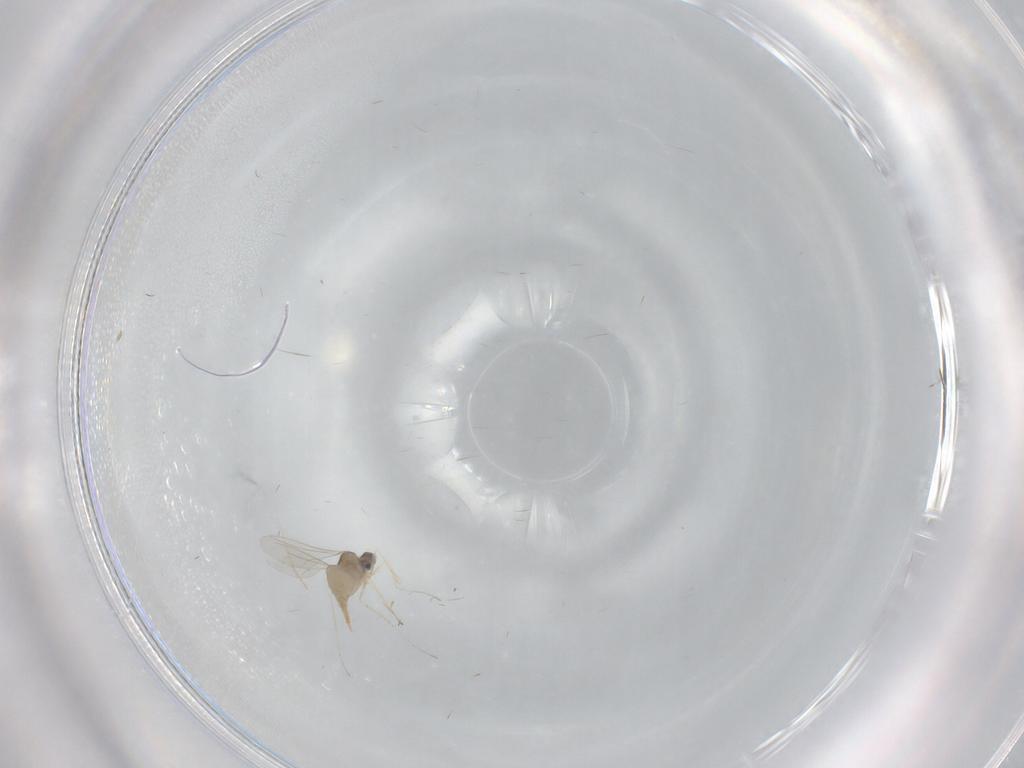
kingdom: Animalia
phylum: Arthropoda
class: Insecta
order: Diptera
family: Cecidomyiidae
